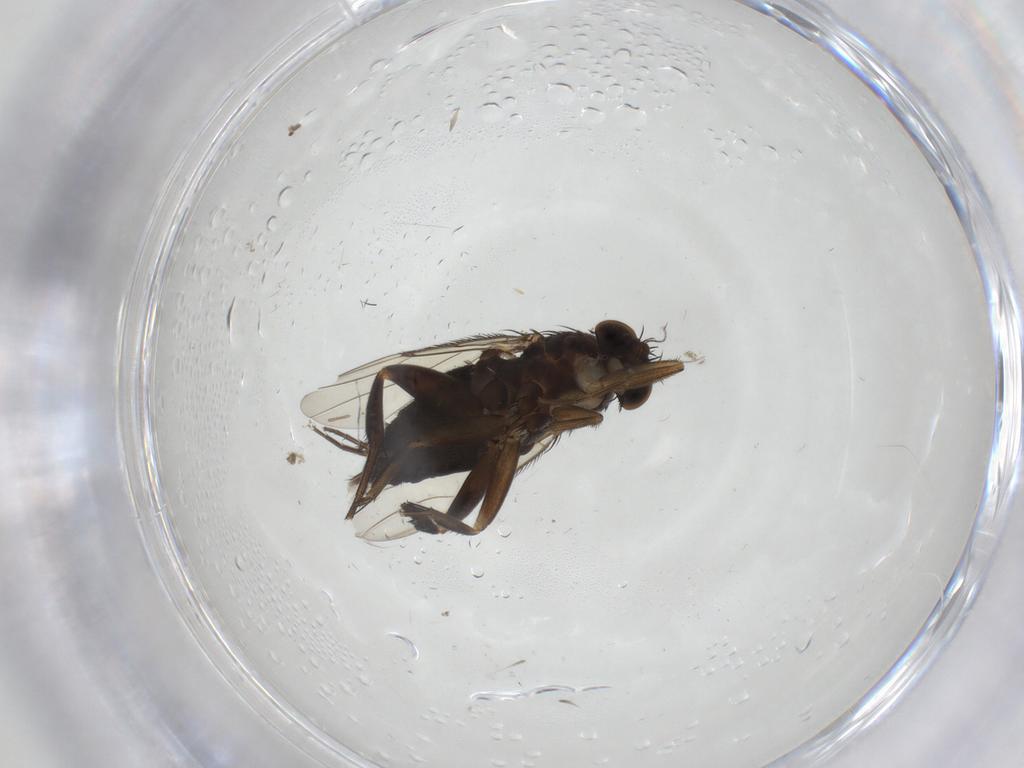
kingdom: Animalia
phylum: Arthropoda
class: Insecta
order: Diptera
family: Phoridae
